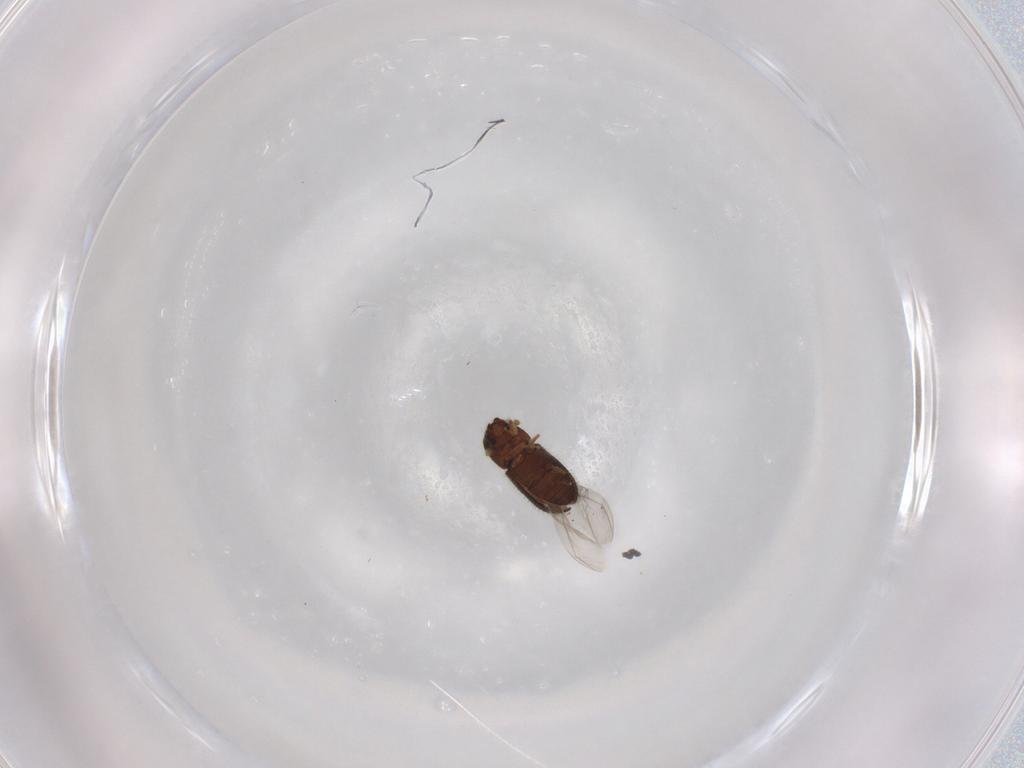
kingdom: Animalia
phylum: Arthropoda
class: Insecta
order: Coleoptera
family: Curculionidae
